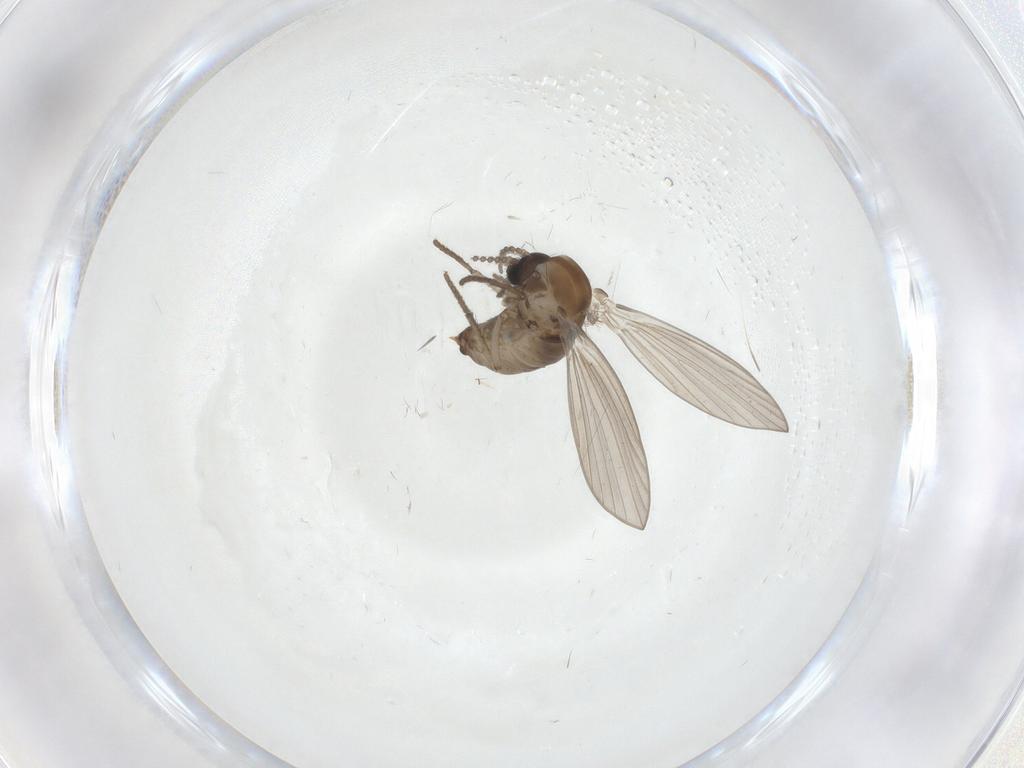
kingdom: Animalia
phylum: Arthropoda
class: Insecta
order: Diptera
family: Psychodidae
